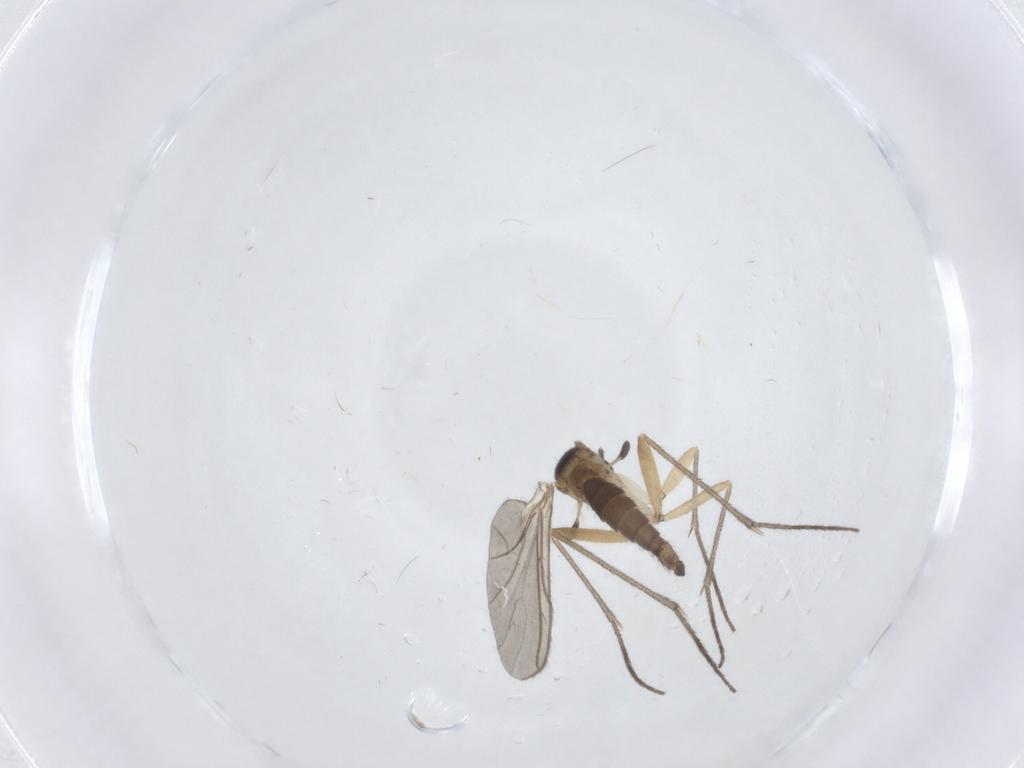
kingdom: Animalia
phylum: Arthropoda
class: Insecta
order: Diptera
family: Sciaridae
